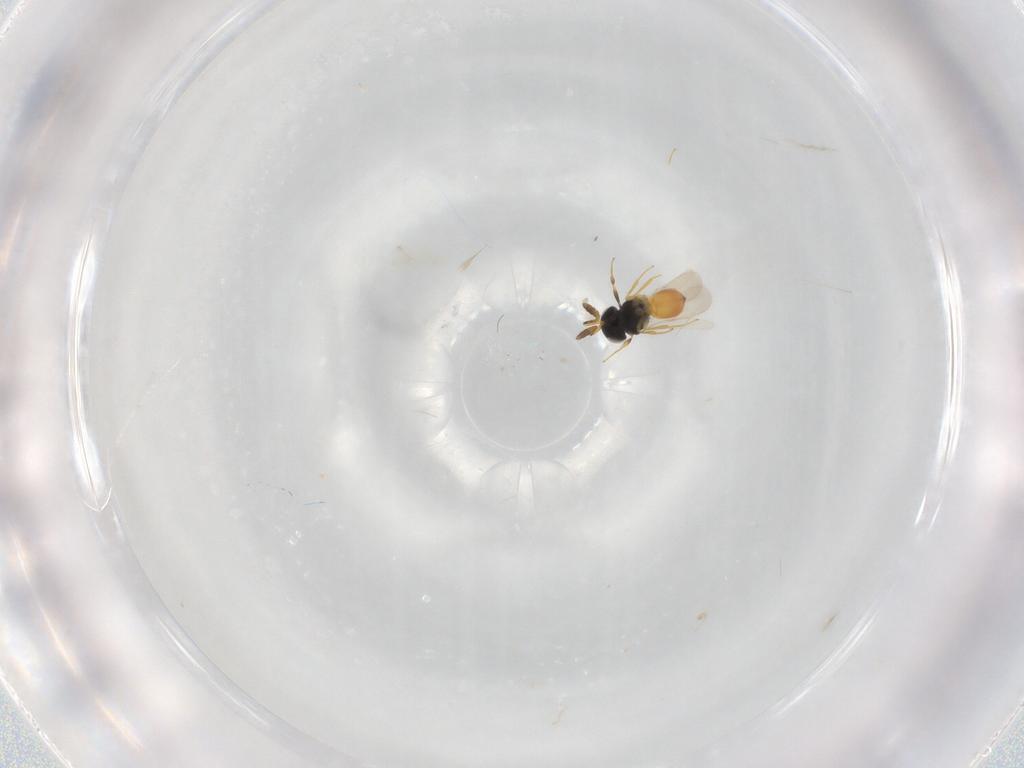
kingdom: Animalia
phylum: Arthropoda
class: Insecta
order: Hymenoptera
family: Scelionidae
